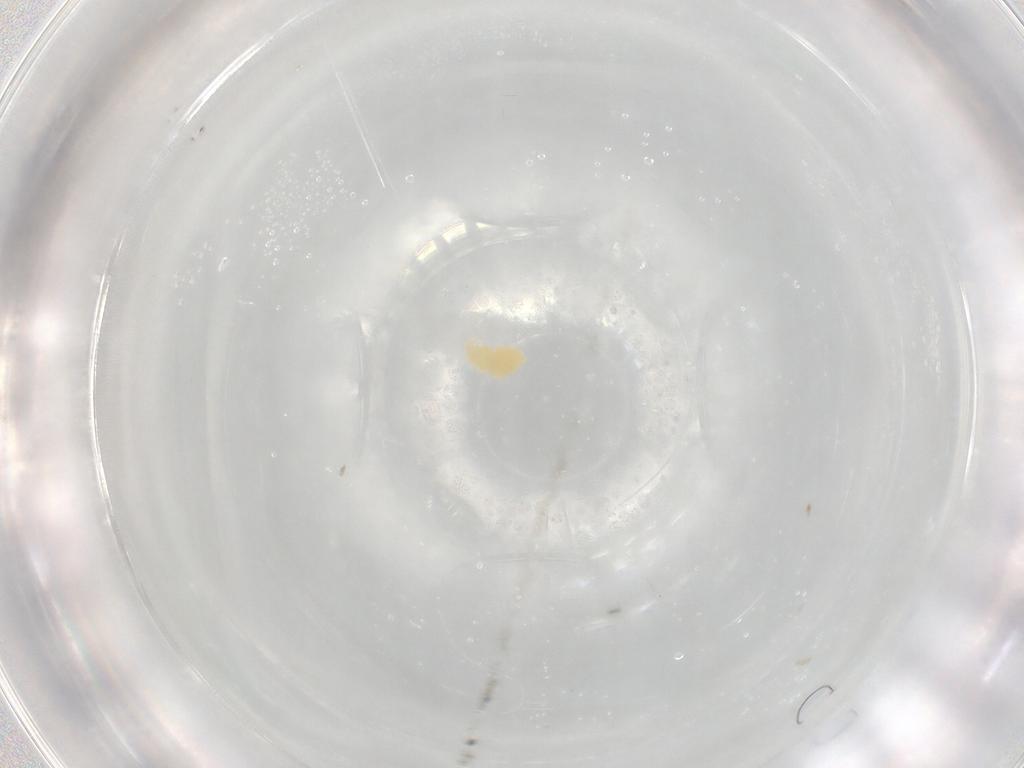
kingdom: Animalia
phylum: Arthropoda
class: Insecta
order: Hemiptera
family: Aleyrodidae
